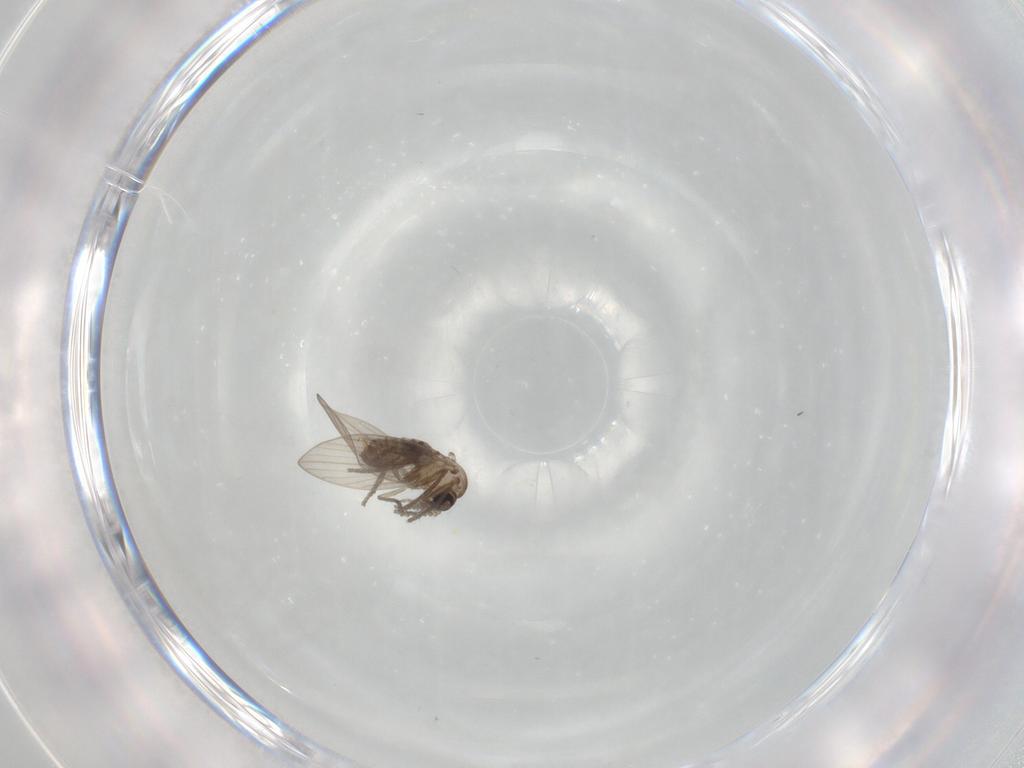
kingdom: Animalia
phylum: Arthropoda
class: Insecta
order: Diptera
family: Psychodidae
